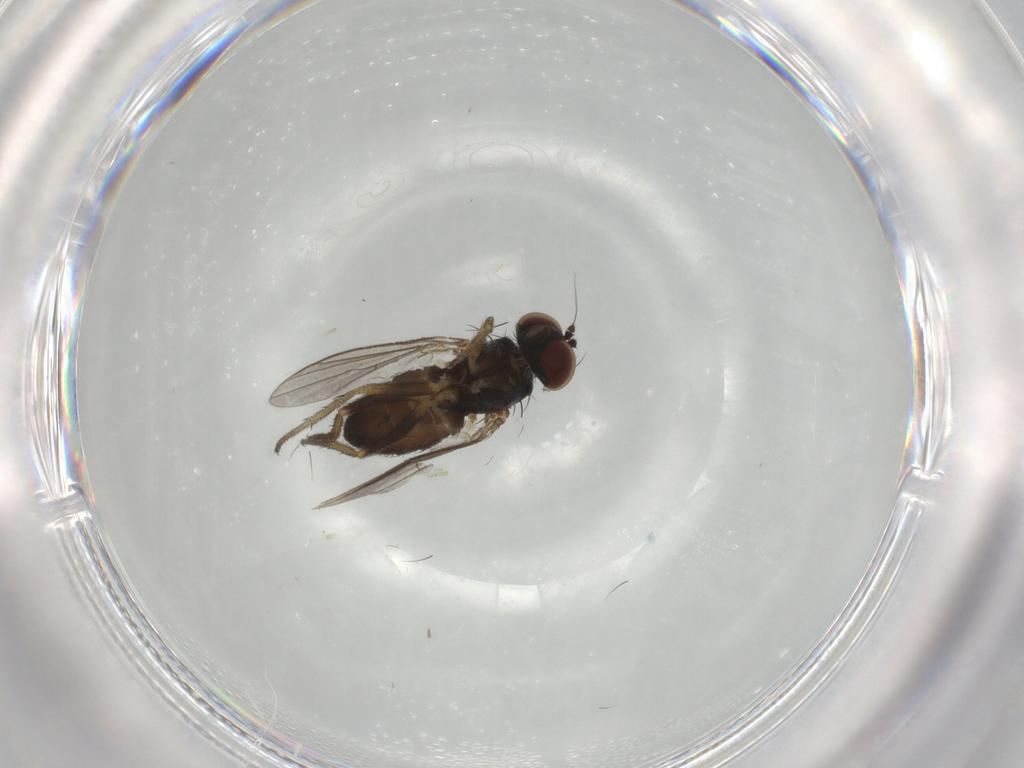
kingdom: Animalia
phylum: Arthropoda
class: Insecta
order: Diptera
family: Dolichopodidae
